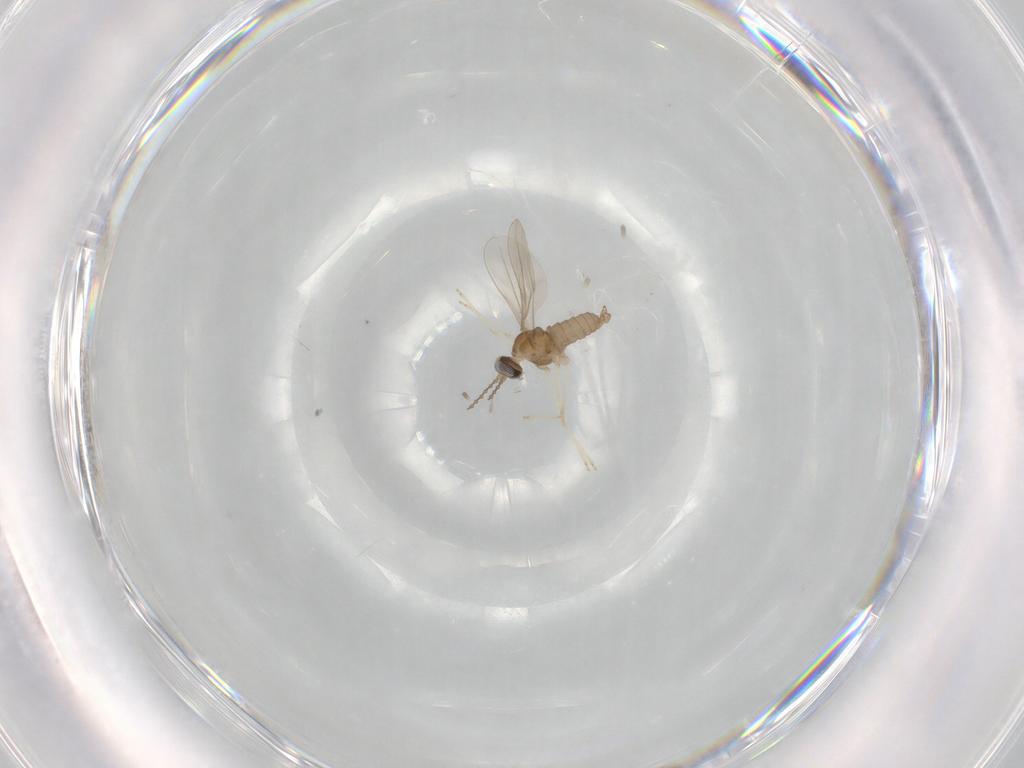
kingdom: Animalia
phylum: Arthropoda
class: Insecta
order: Diptera
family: Cecidomyiidae
